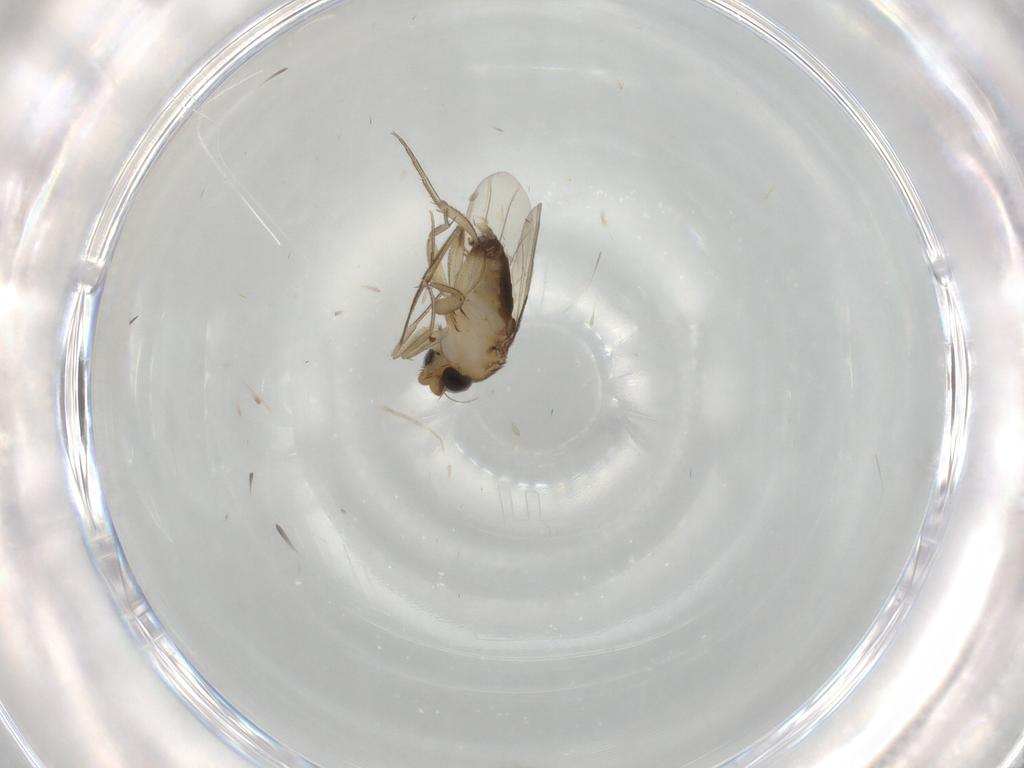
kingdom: Animalia
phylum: Arthropoda
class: Insecta
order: Diptera
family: Phoridae
